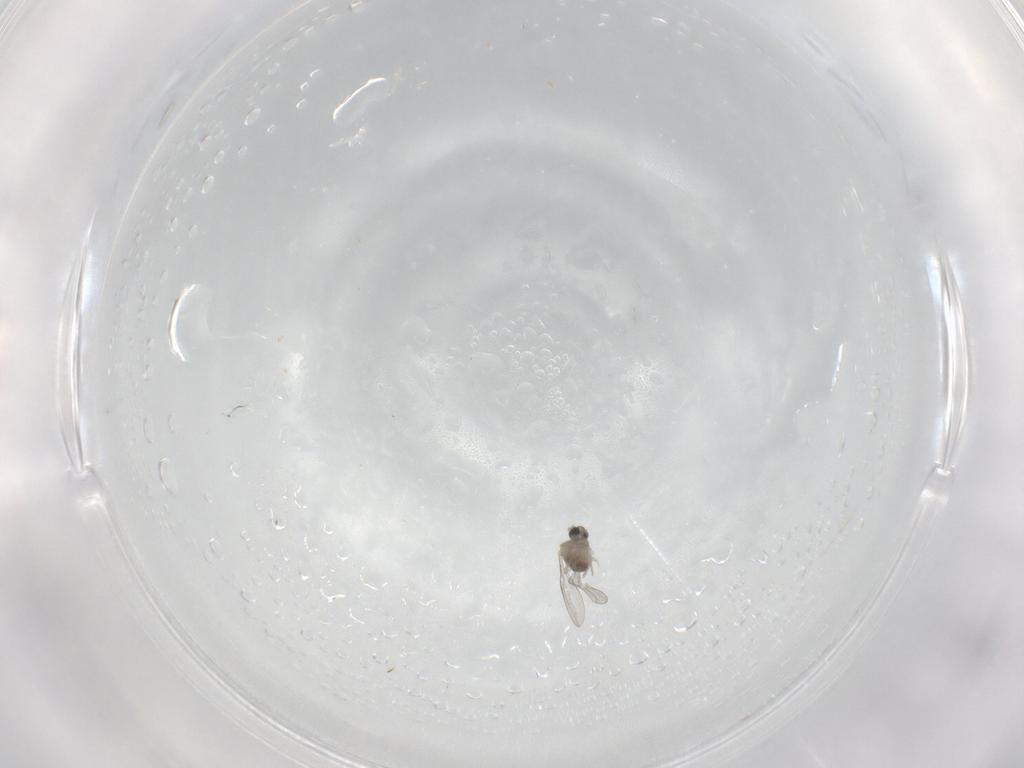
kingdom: Animalia
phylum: Arthropoda
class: Insecta
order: Diptera
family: Cecidomyiidae
